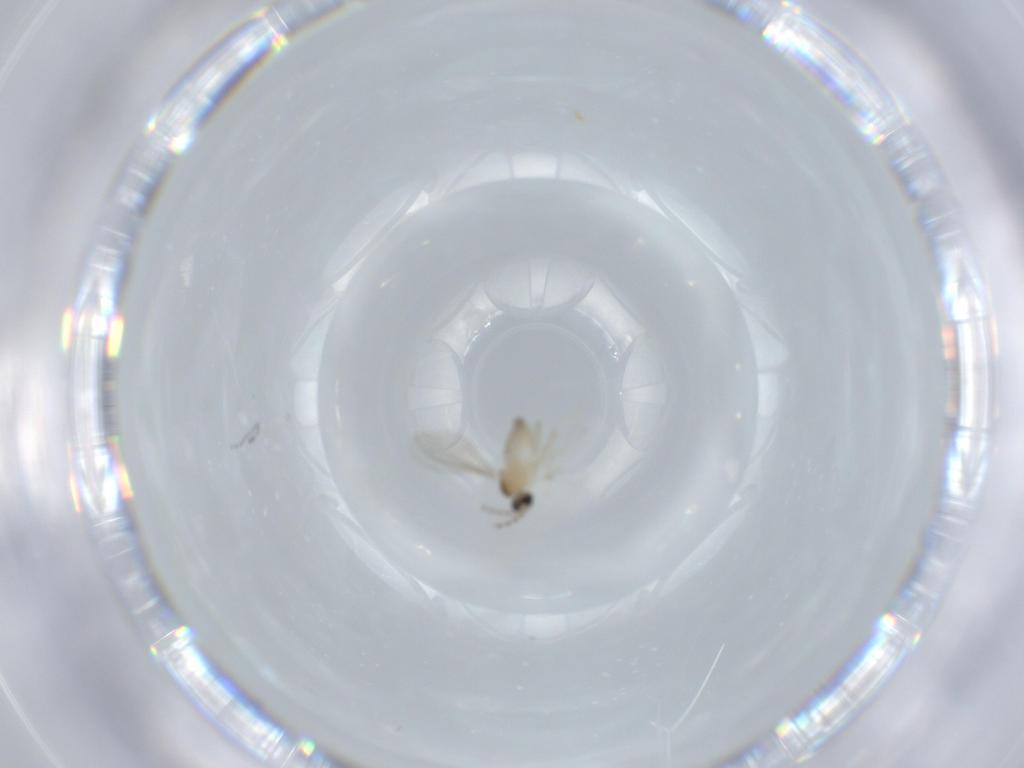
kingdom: Animalia
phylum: Arthropoda
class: Insecta
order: Diptera
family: Cecidomyiidae
